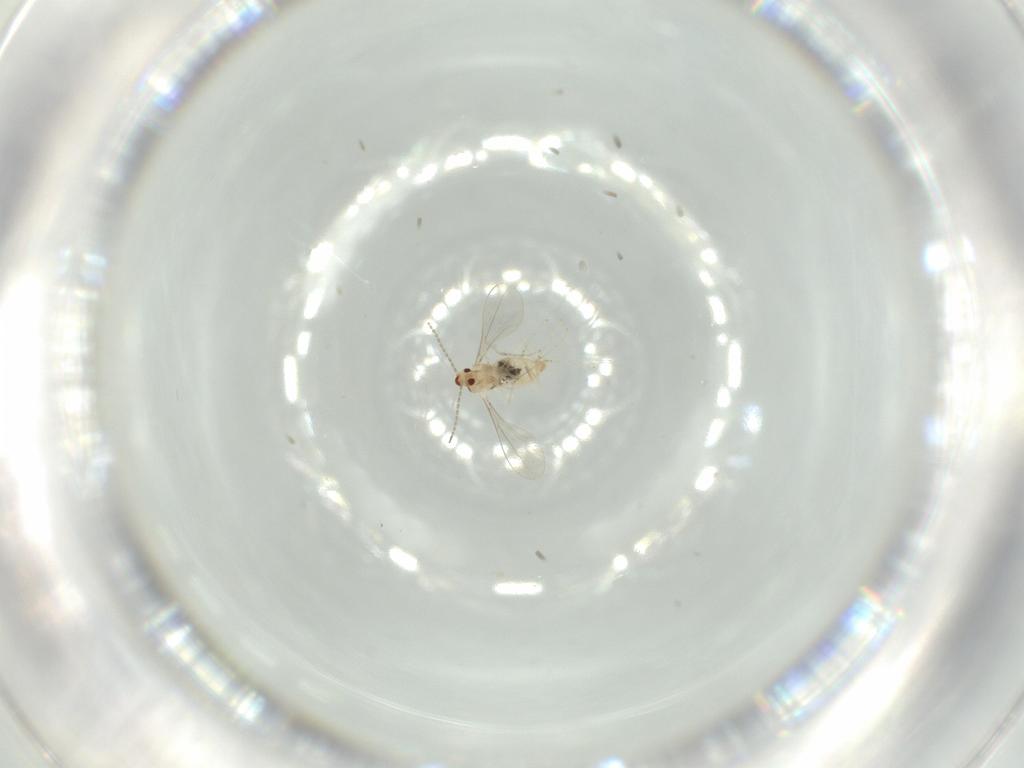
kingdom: Animalia
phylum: Arthropoda
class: Insecta
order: Diptera
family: Cecidomyiidae
